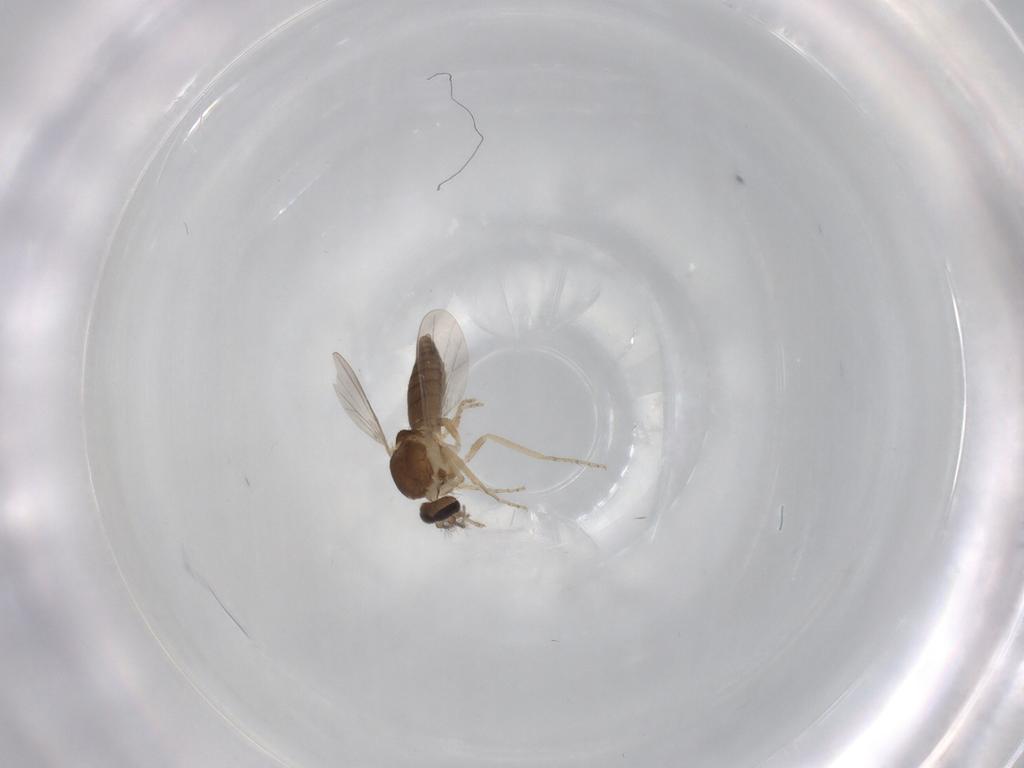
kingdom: Animalia
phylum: Arthropoda
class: Insecta
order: Diptera
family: Ceratopogonidae
